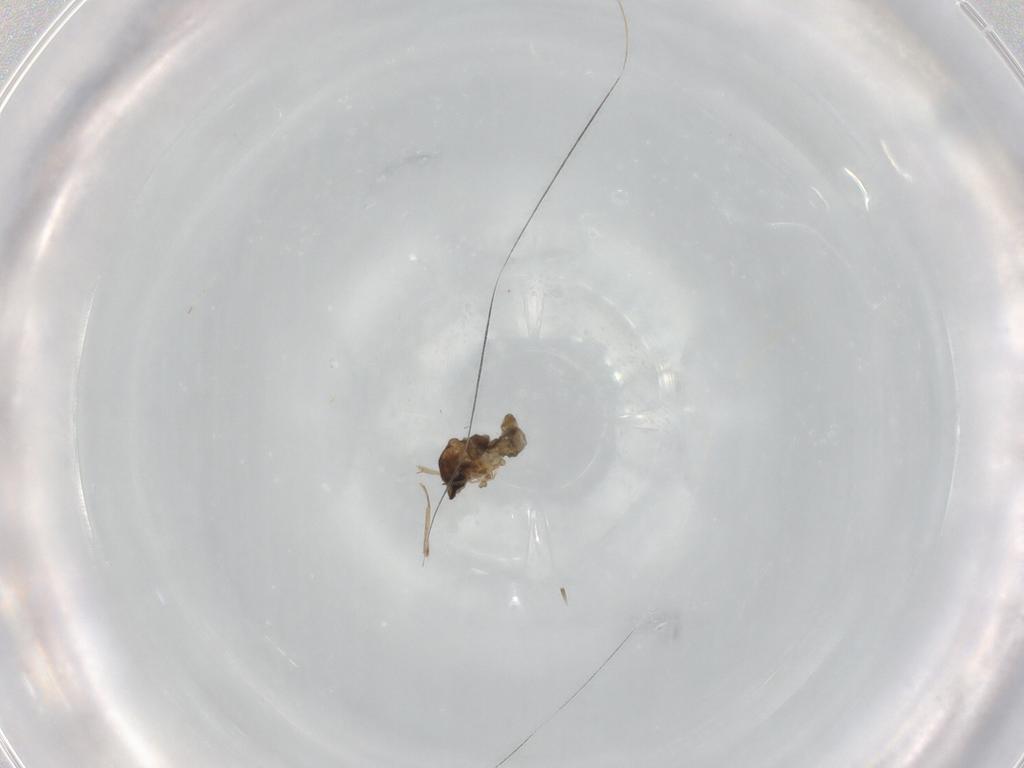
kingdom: Animalia
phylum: Arthropoda
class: Insecta
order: Diptera
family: Cecidomyiidae
